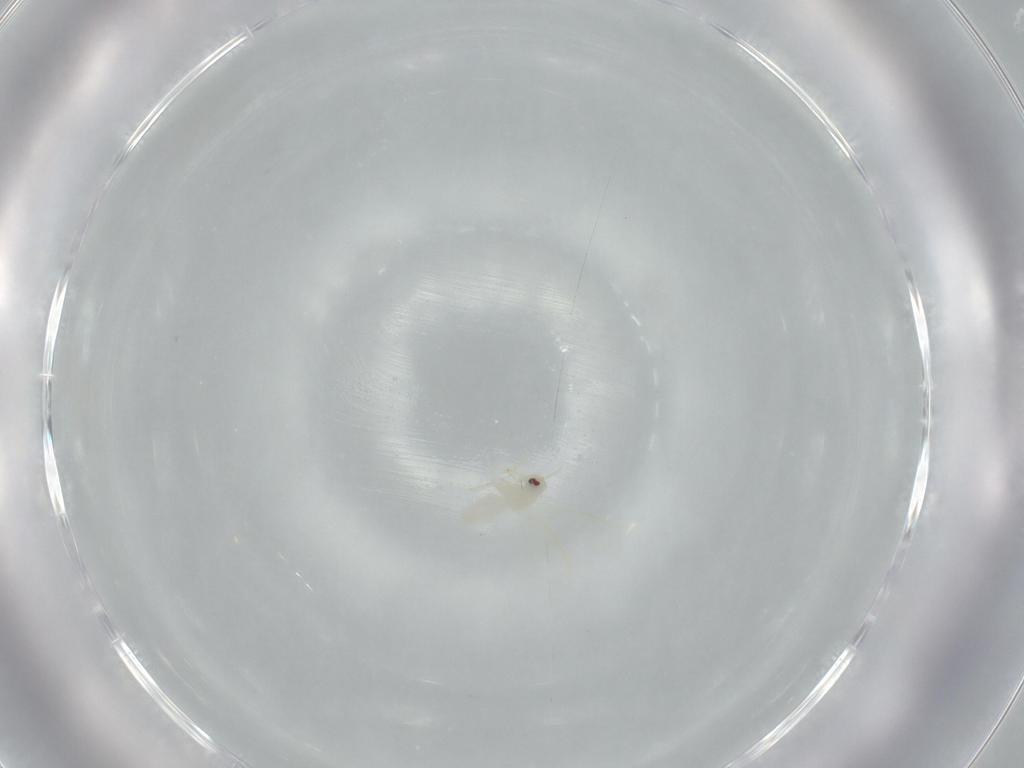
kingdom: Animalia
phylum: Arthropoda
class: Insecta
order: Hemiptera
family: Aleyrodidae
